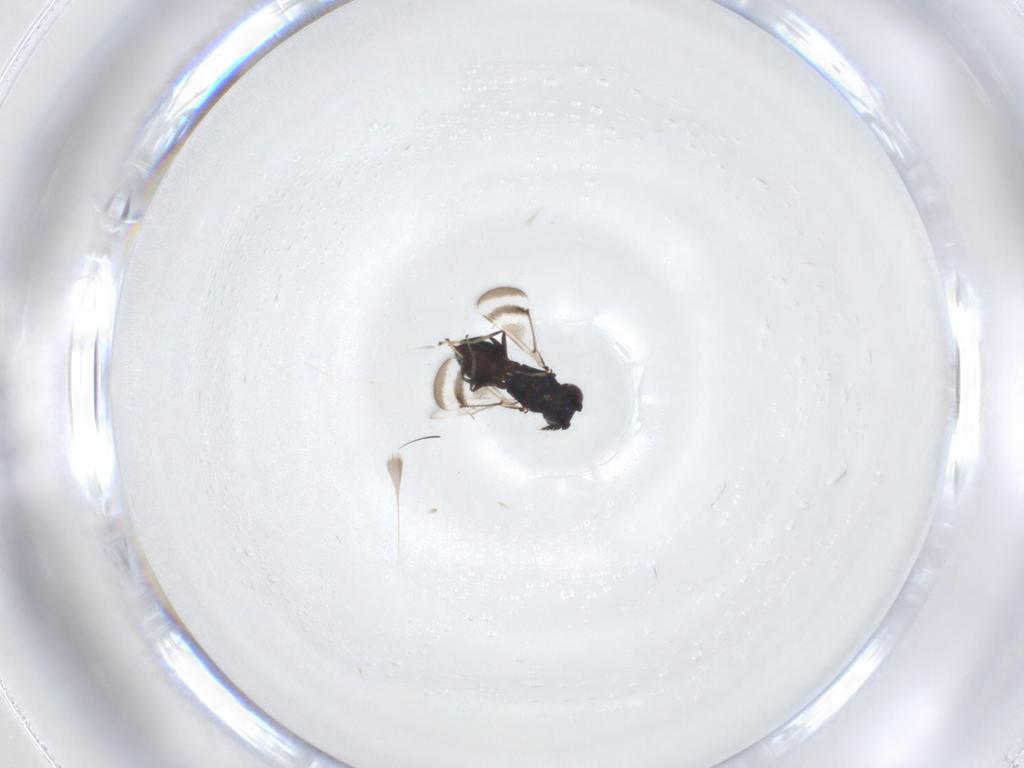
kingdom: Animalia
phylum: Arthropoda
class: Insecta
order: Hymenoptera
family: Eulophidae
